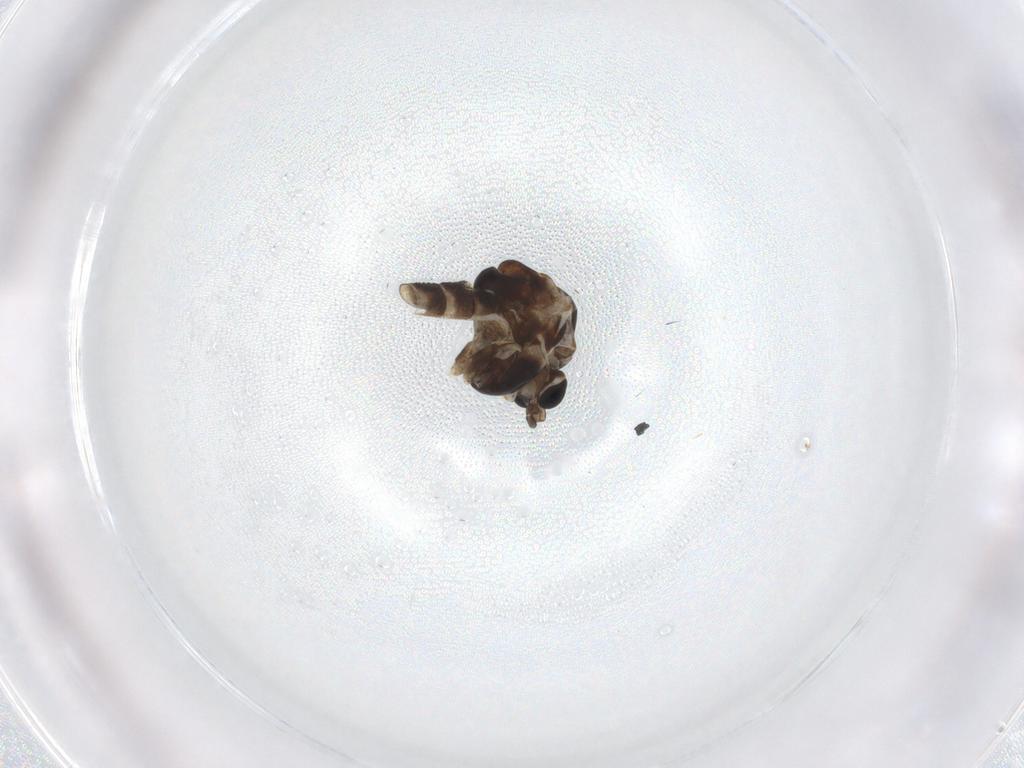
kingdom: Animalia
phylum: Arthropoda
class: Insecta
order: Diptera
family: Chironomidae
